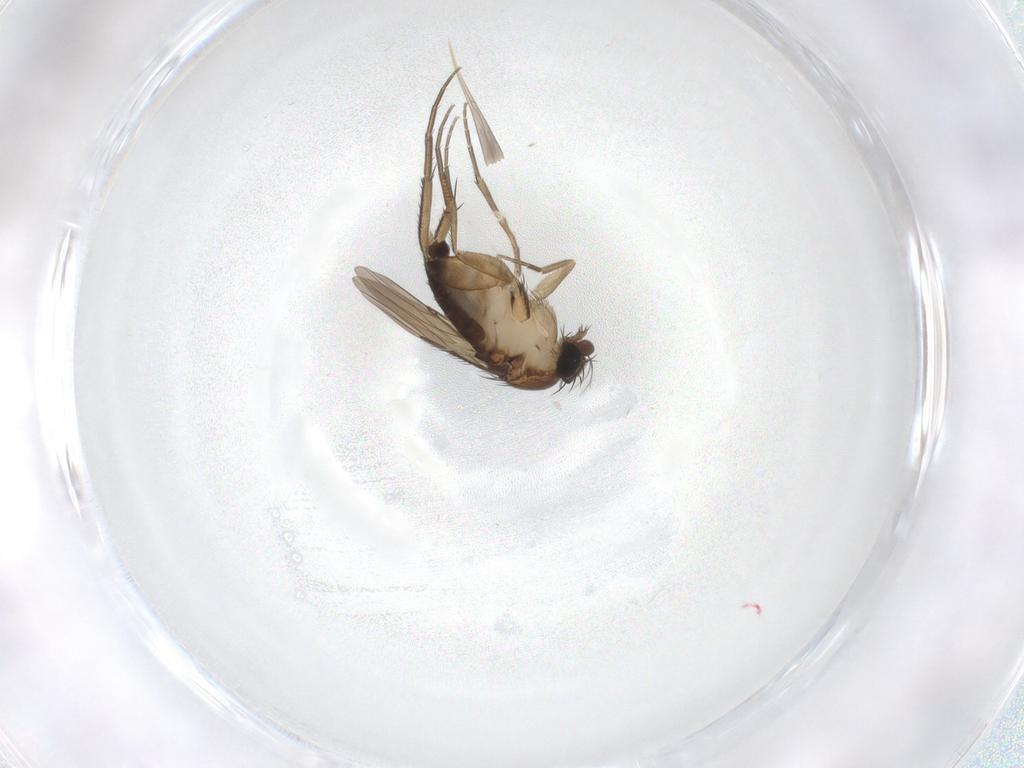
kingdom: Animalia
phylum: Arthropoda
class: Insecta
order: Diptera
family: Phoridae
